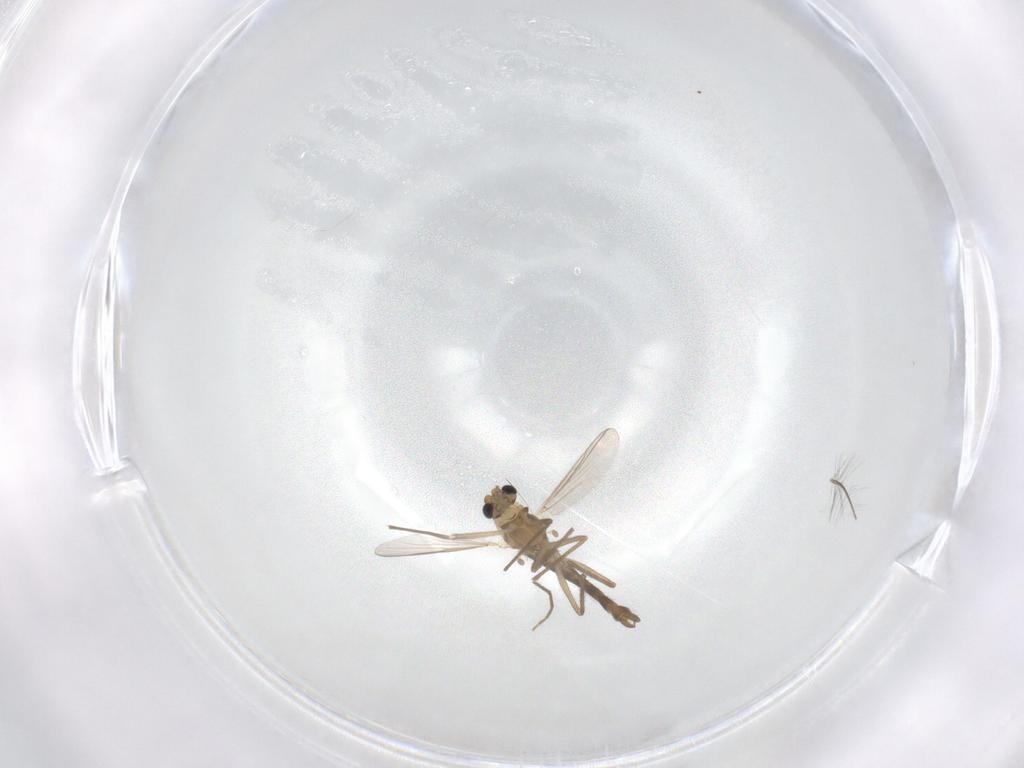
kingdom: Animalia
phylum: Arthropoda
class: Insecta
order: Diptera
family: Chironomidae
